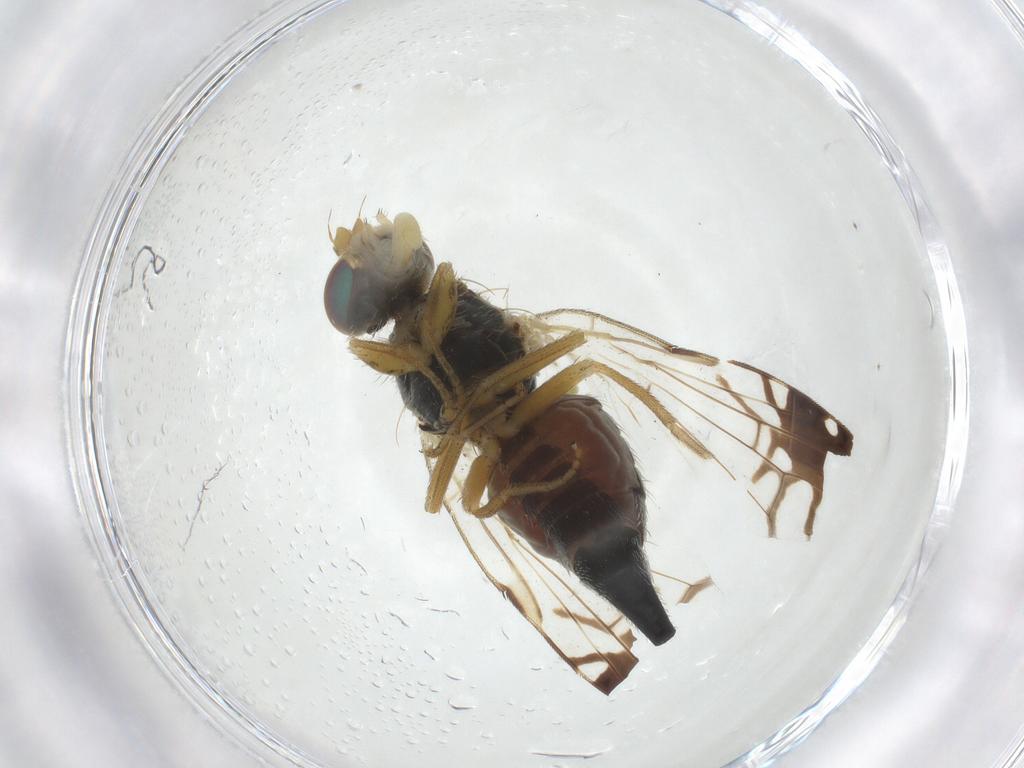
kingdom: Animalia
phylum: Arthropoda
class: Insecta
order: Diptera
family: Tephritidae
